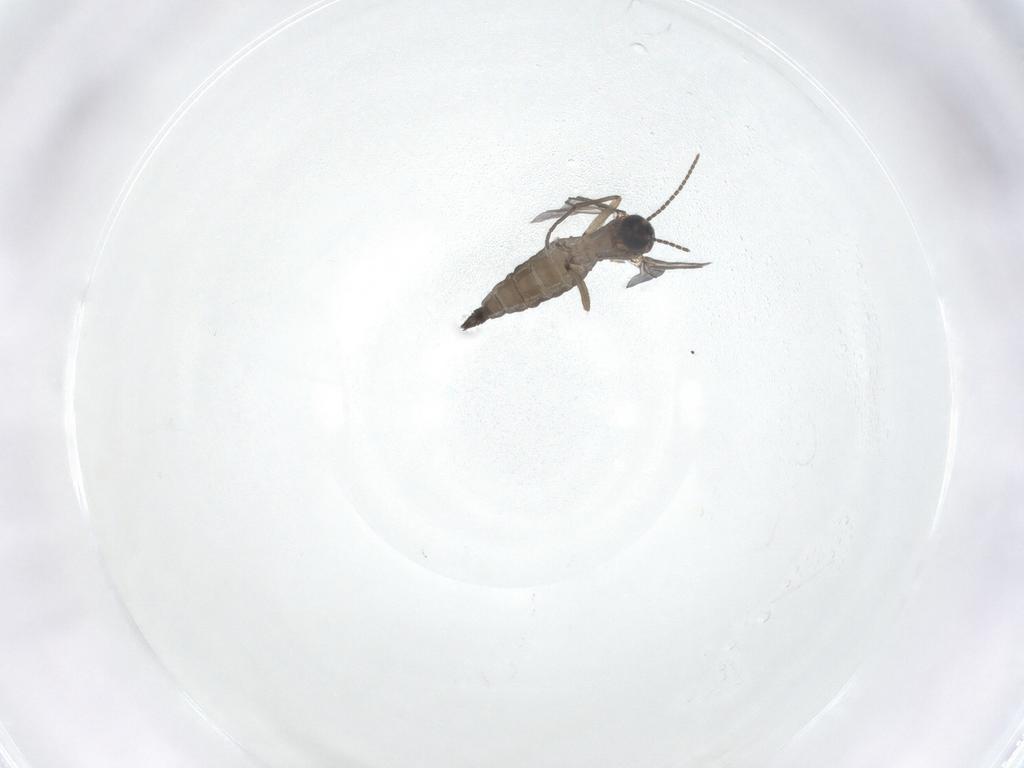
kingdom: Animalia
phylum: Arthropoda
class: Insecta
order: Diptera
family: Sciaridae
